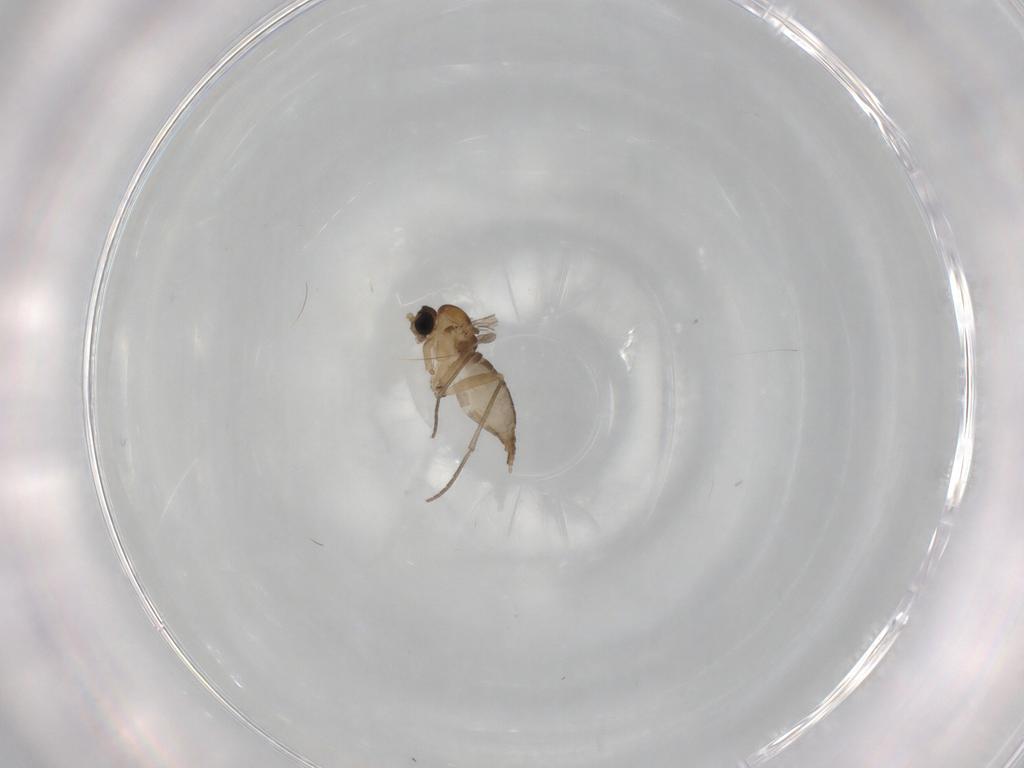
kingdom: Animalia
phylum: Arthropoda
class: Insecta
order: Diptera
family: Sciaridae
